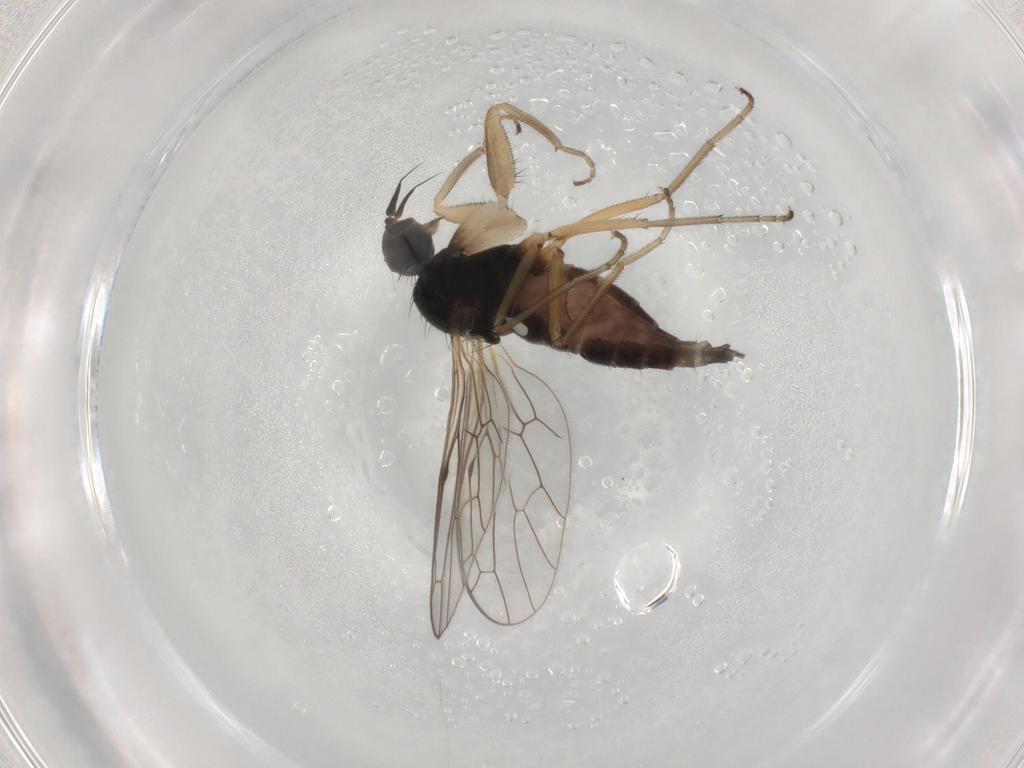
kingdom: Animalia
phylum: Arthropoda
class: Insecta
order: Diptera
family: Empididae
